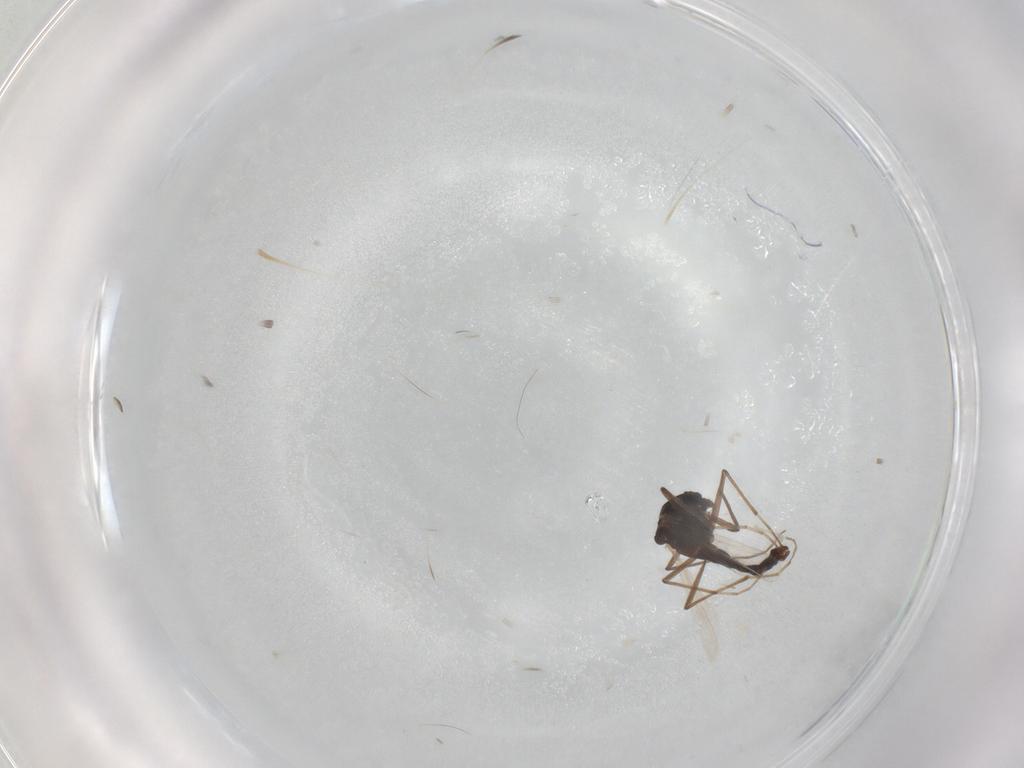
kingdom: Animalia
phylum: Arthropoda
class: Insecta
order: Diptera
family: Chironomidae
